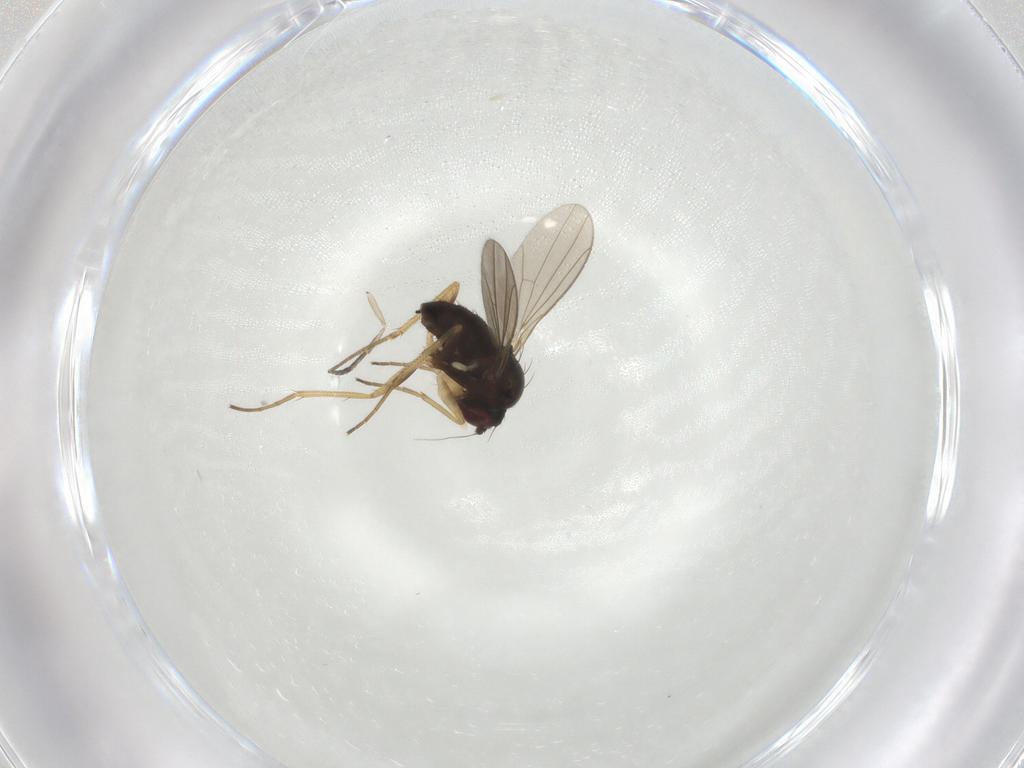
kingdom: Animalia
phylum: Arthropoda
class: Insecta
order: Diptera
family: Dolichopodidae
